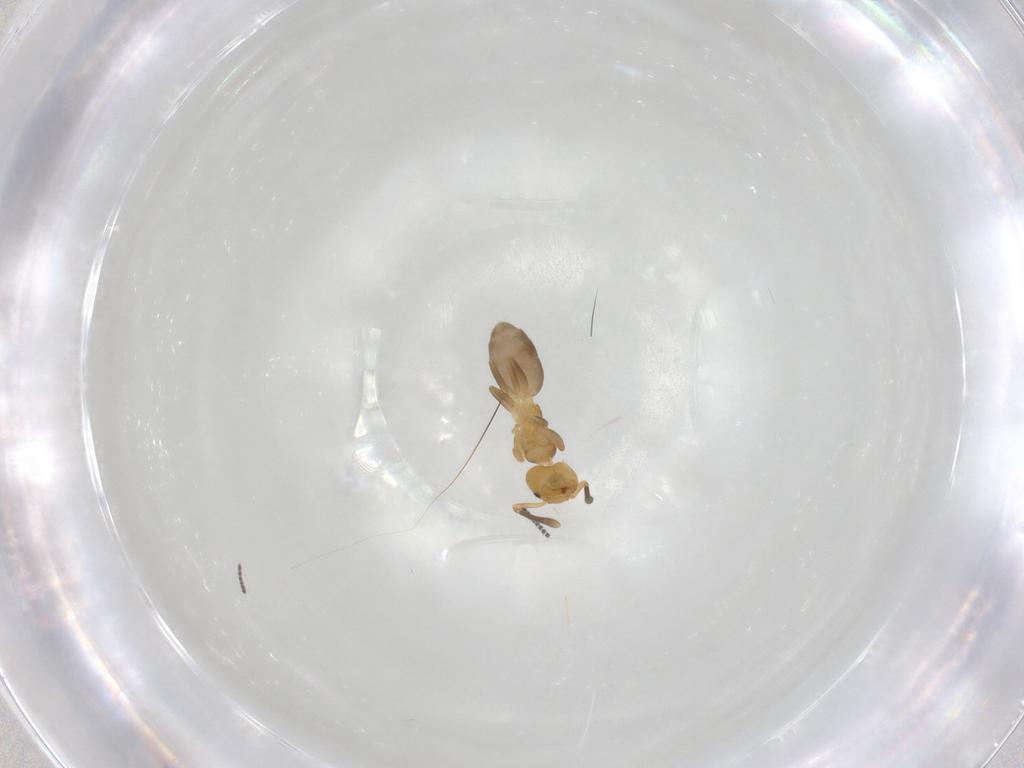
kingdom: Animalia
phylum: Arthropoda
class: Insecta
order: Hymenoptera
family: Formicidae
